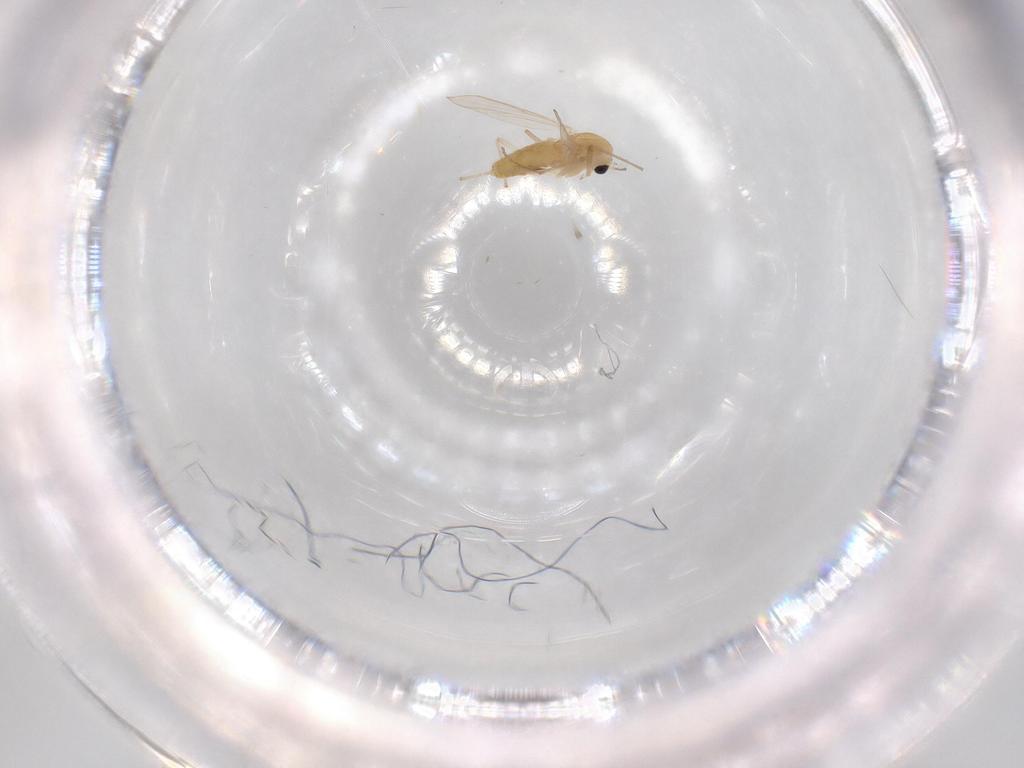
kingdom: Animalia
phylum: Arthropoda
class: Insecta
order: Diptera
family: Chironomidae
